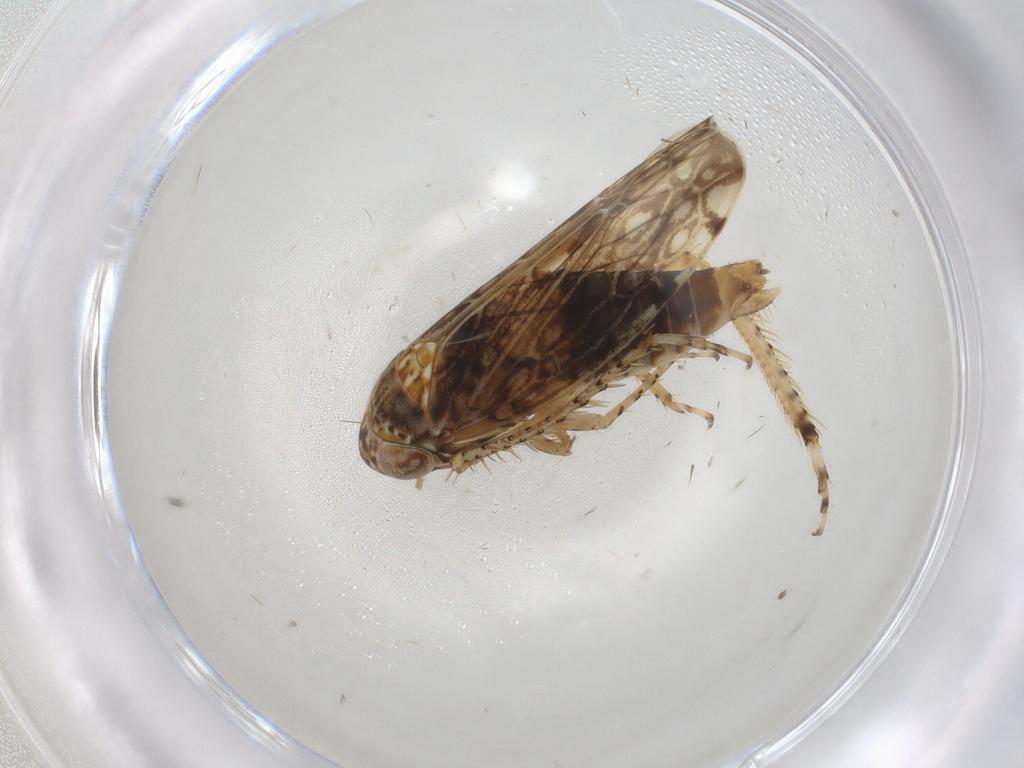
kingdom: Animalia
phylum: Arthropoda
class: Insecta
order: Hemiptera
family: Cicadellidae
